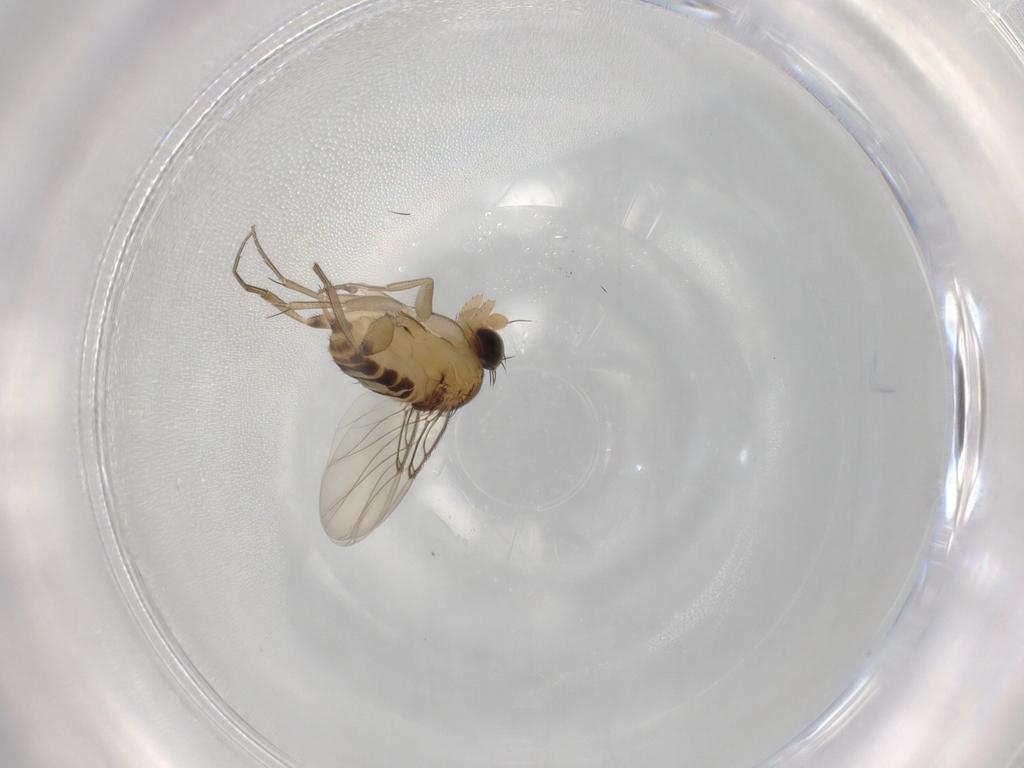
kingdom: Animalia
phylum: Arthropoda
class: Insecta
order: Diptera
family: Phoridae
